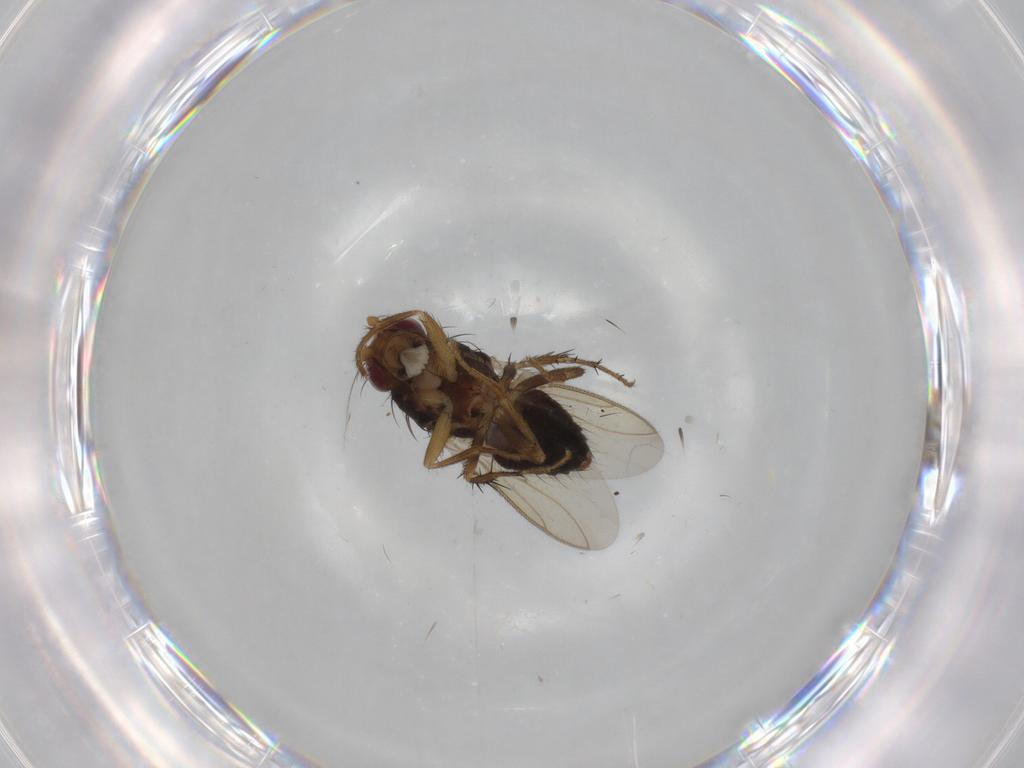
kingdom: Animalia
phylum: Arthropoda
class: Insecta
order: Diptera
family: Sphaeroceridae
